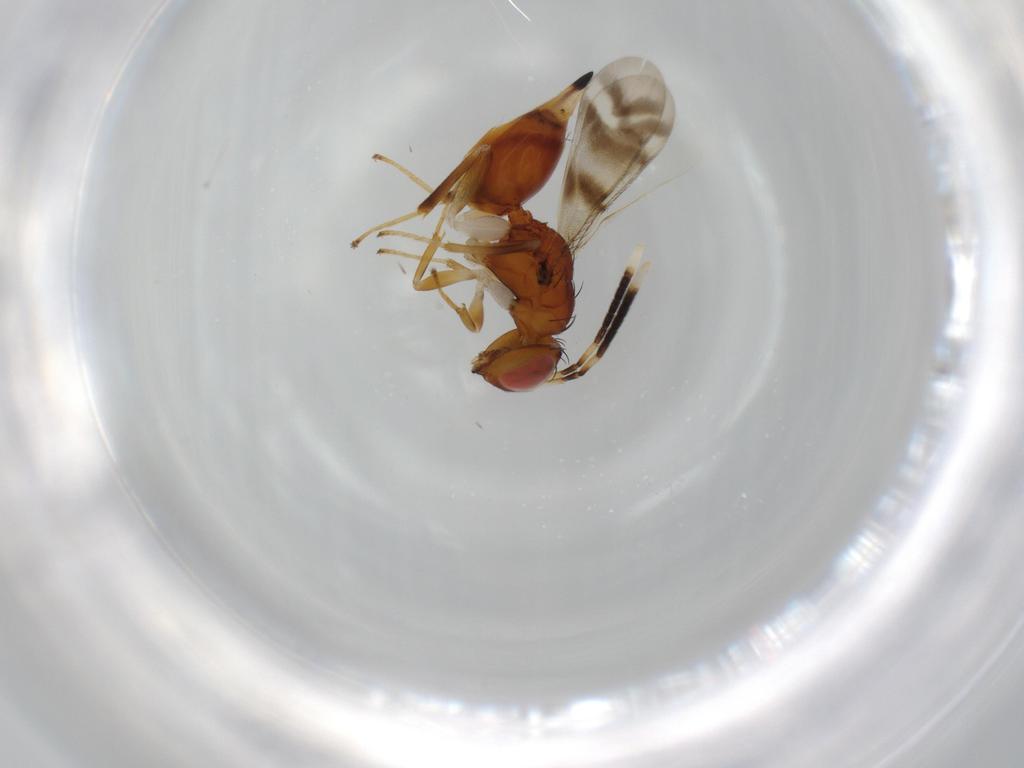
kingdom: Animalia
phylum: Arthropoda
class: Insecta
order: Hymenoptera
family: Diparidae
